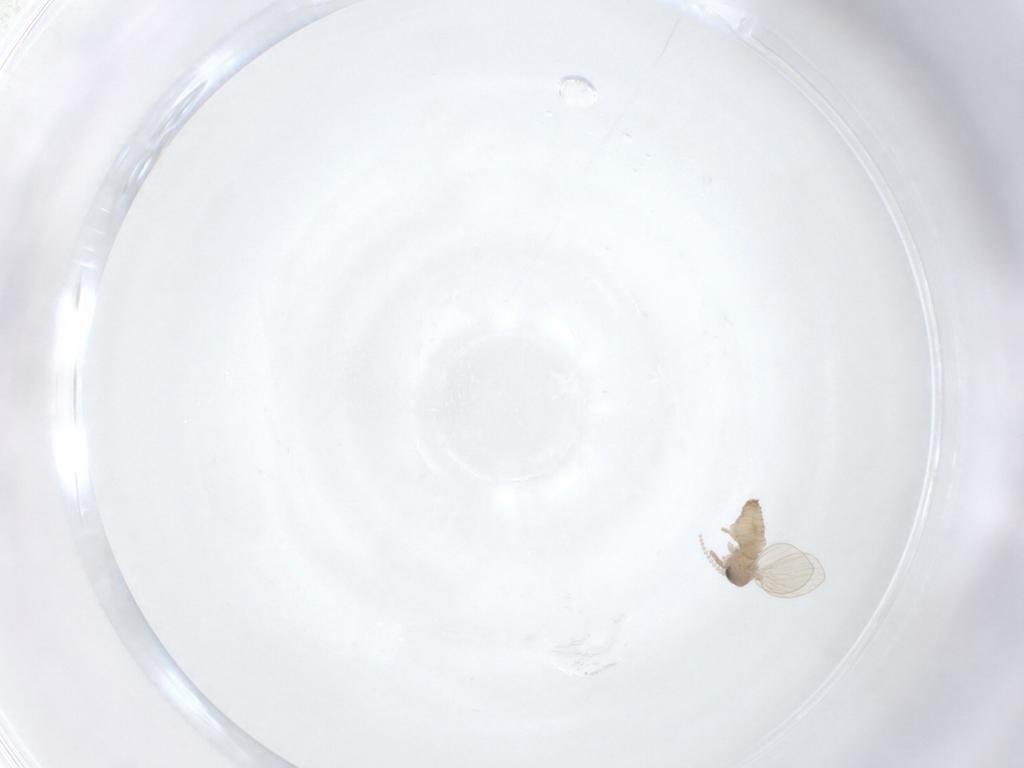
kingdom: Animalia
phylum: Arthropoda
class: Insecta
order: Diptera
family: Psychodidae
